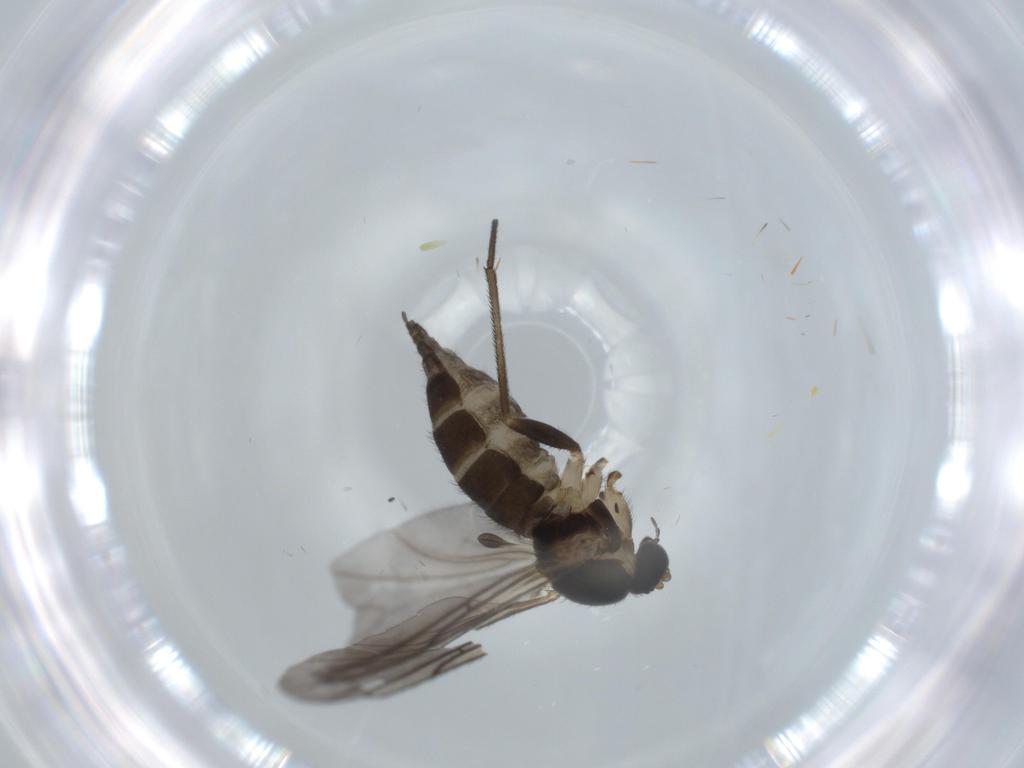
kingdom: Animalia
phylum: Arthropoda
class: Insecta
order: Diptera
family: Sciaridae
